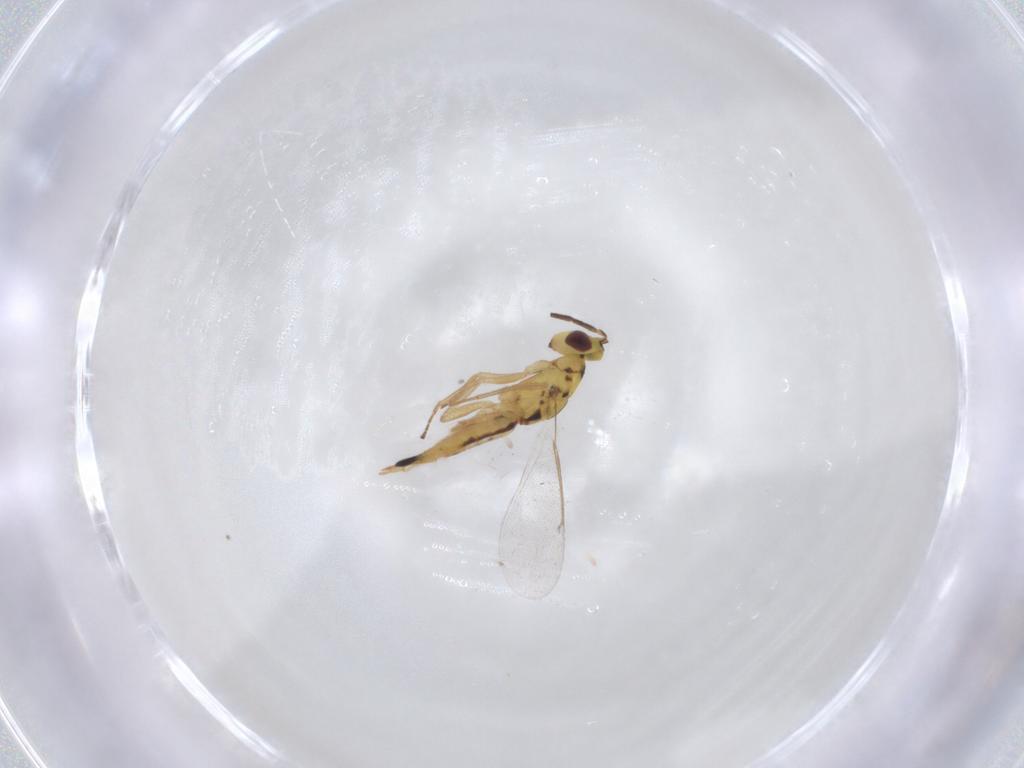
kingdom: Animalia
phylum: Arthropoda
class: Insecta
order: Hymenoptera
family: Eulophidae
